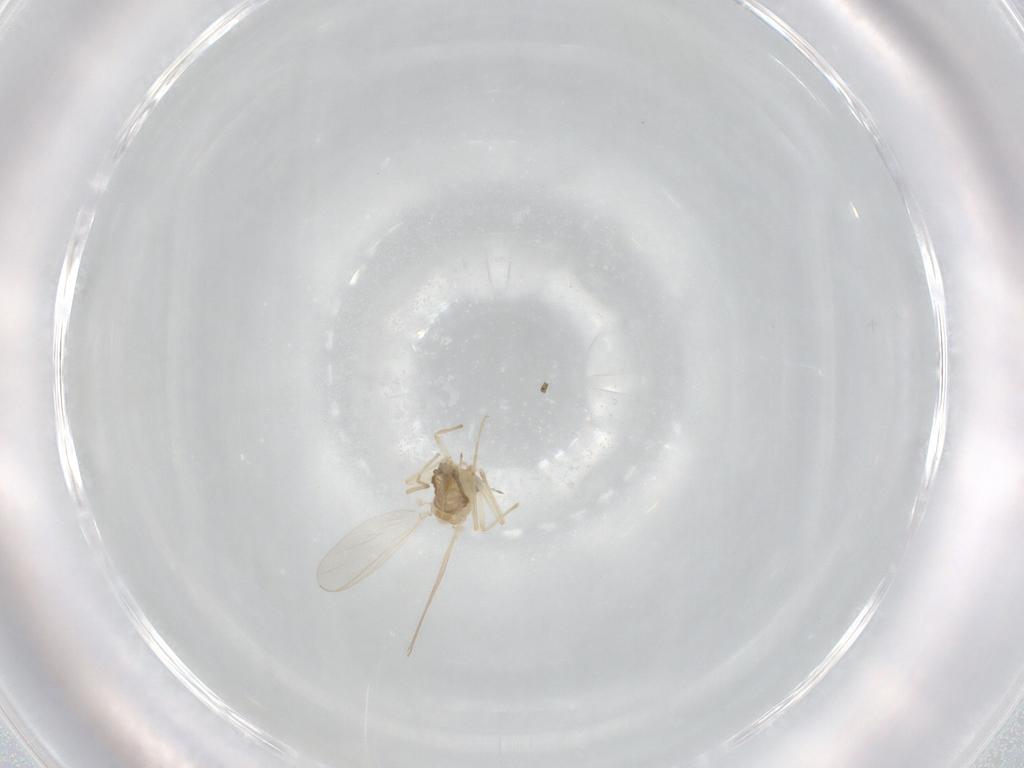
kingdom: Animalia
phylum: Arthropoda
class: Insecta
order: Diptera
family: Chironomidae
